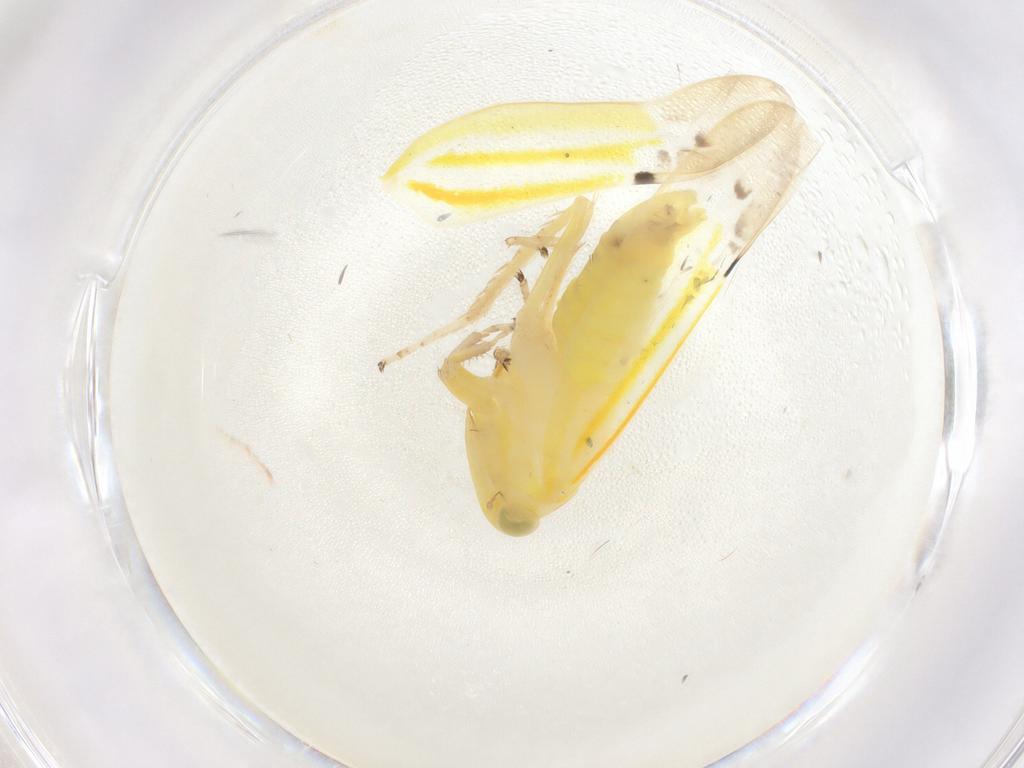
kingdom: Animalia
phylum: Arthropoda
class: Insecta
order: Hemiptera
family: Cicadellidae
